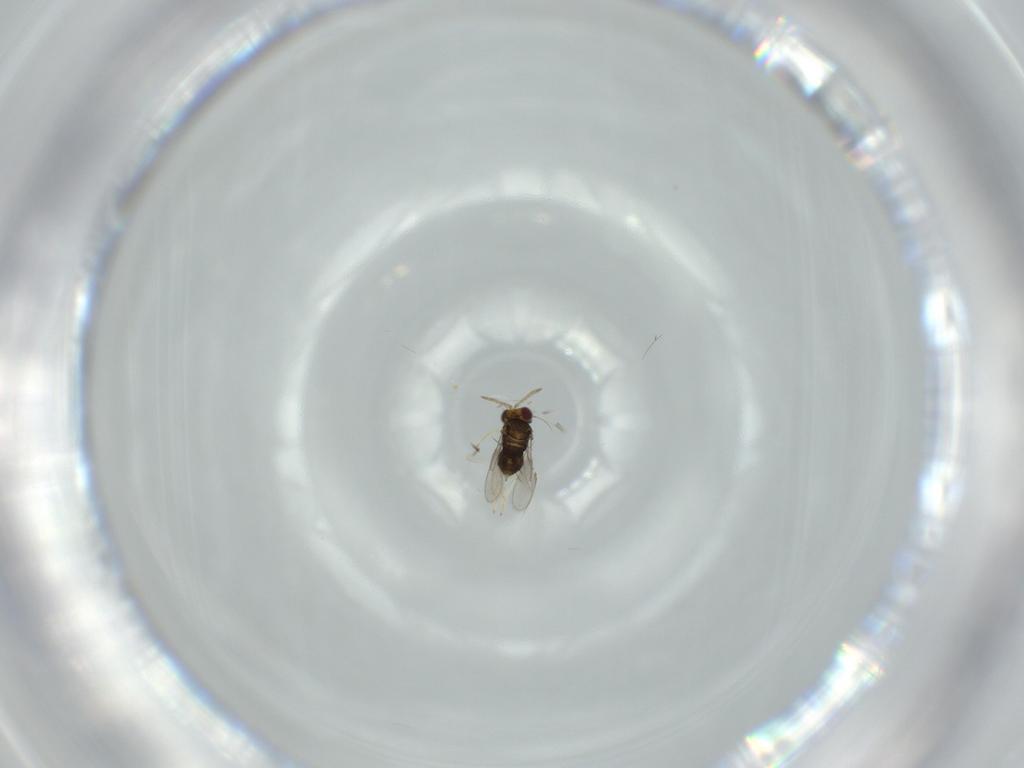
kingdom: Animalia
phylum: Arthropoda
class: Insecta
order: Hymenoptera
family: Aphelinidae
